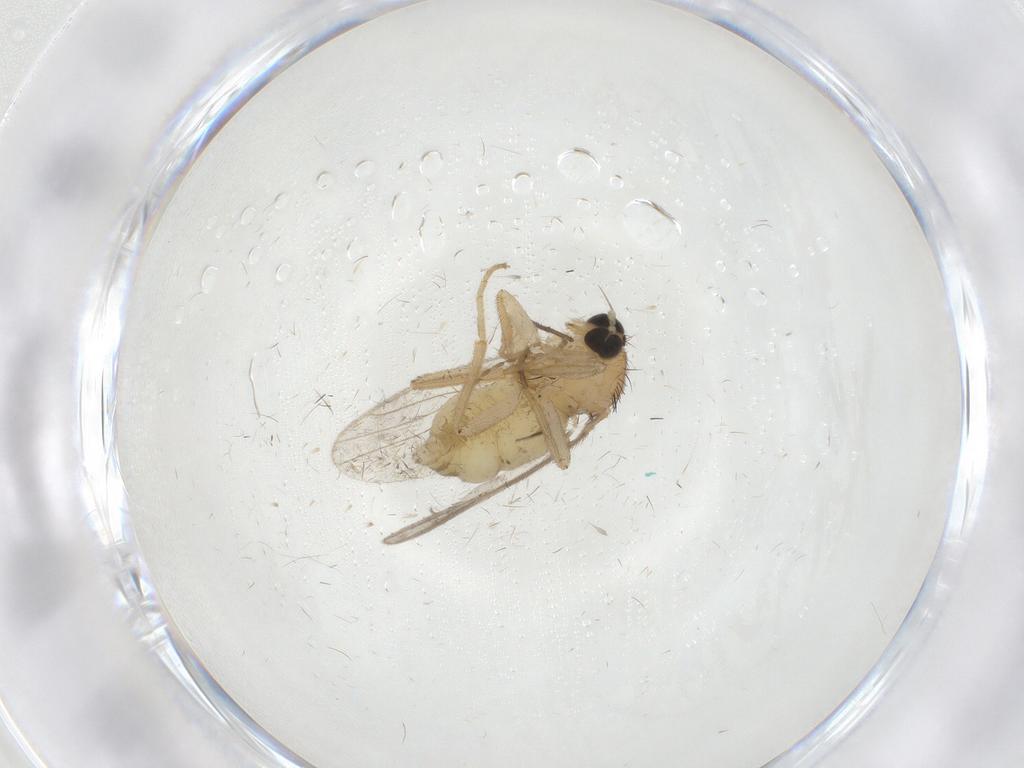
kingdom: Animalia
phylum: Arthropoda
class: Insecta
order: Diptera
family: Hybotidae
